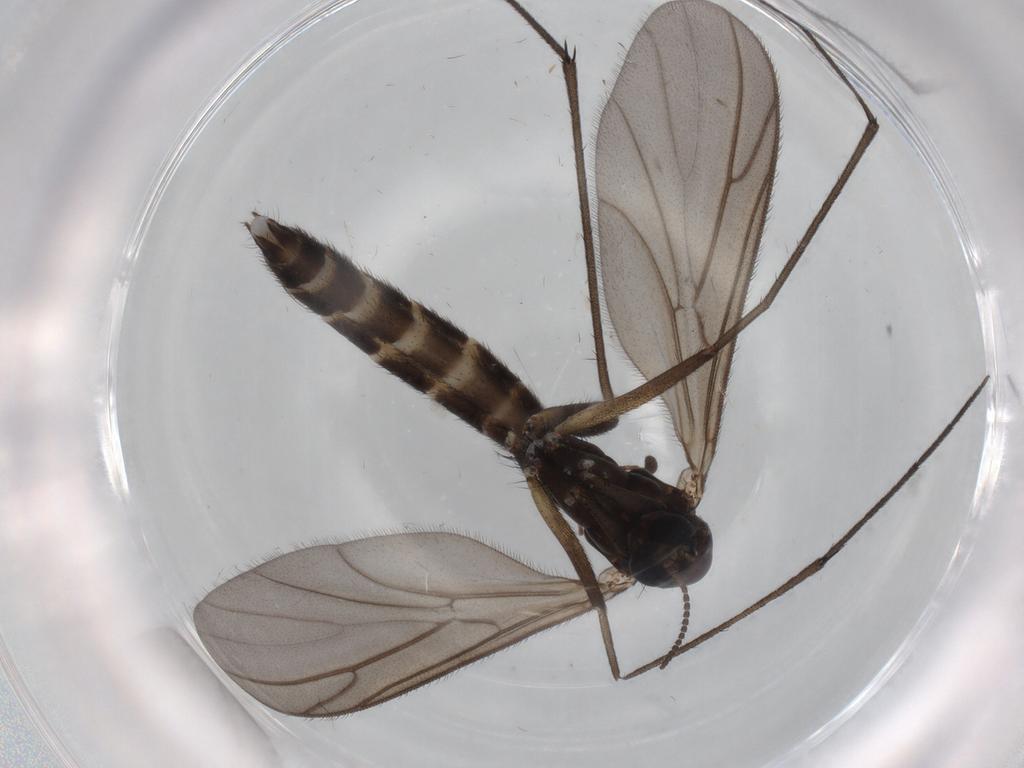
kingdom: Animalia
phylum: Arthropoda
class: Insecta
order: Diptera
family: Ditomyiidae
